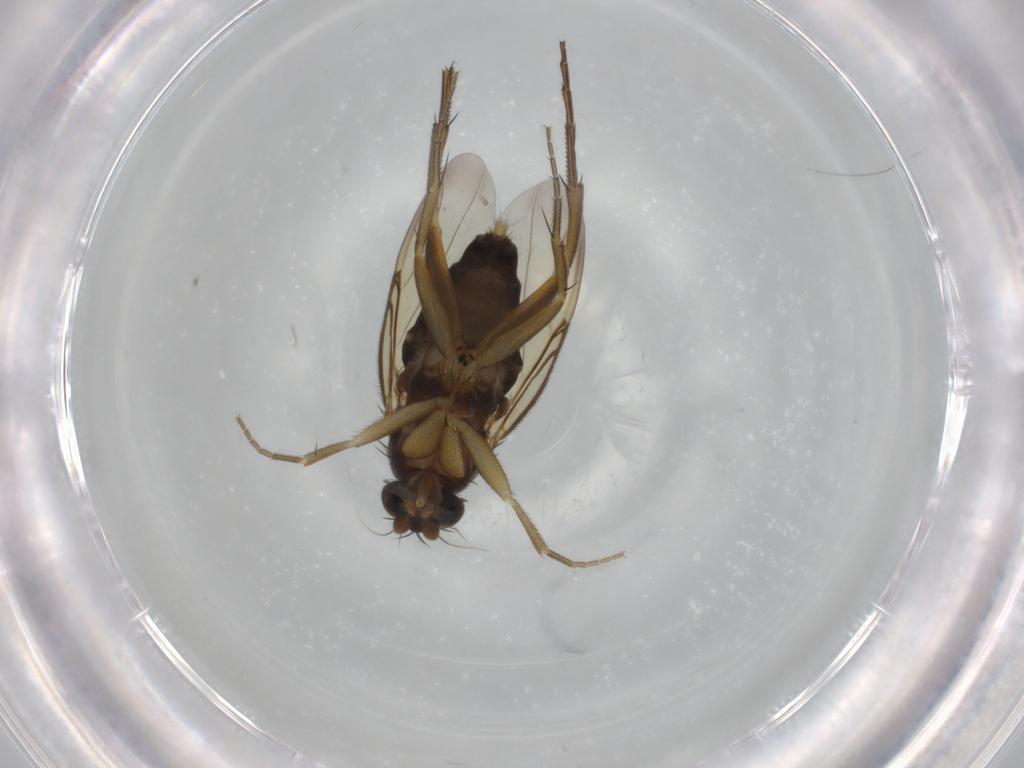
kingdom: Animalia
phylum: Arthropoda
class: Insecta
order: Diptera
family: Phoridae
